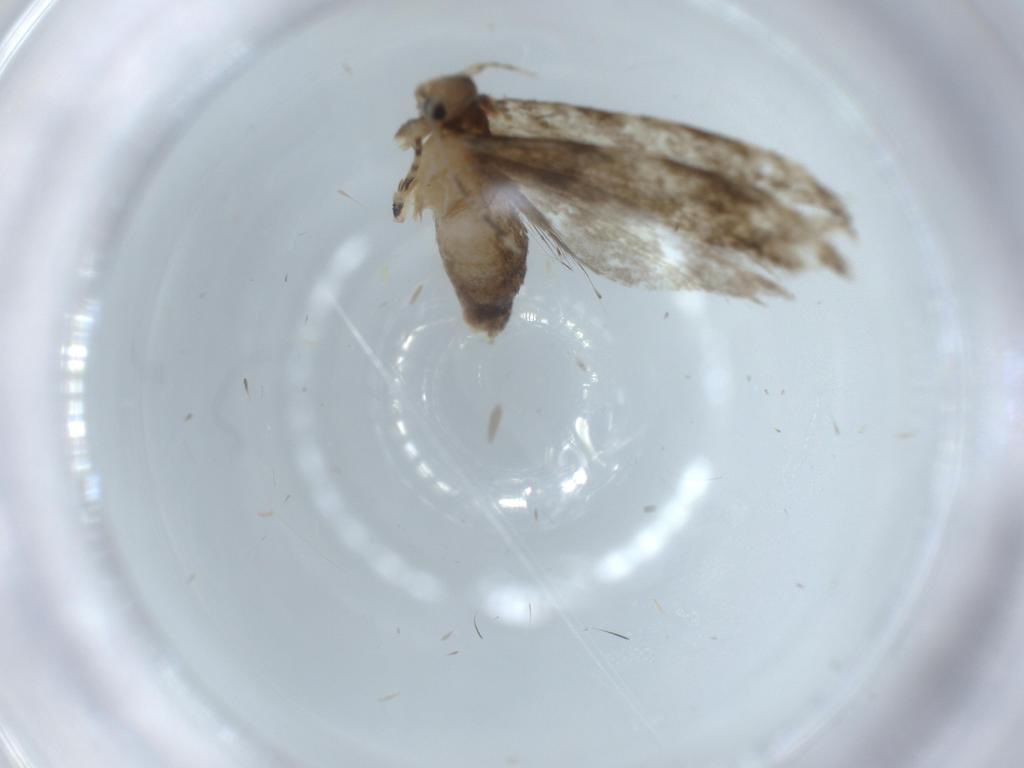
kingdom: Animalia
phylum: Arthropoda
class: Insecta
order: Lepidoptera
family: Tineidae
